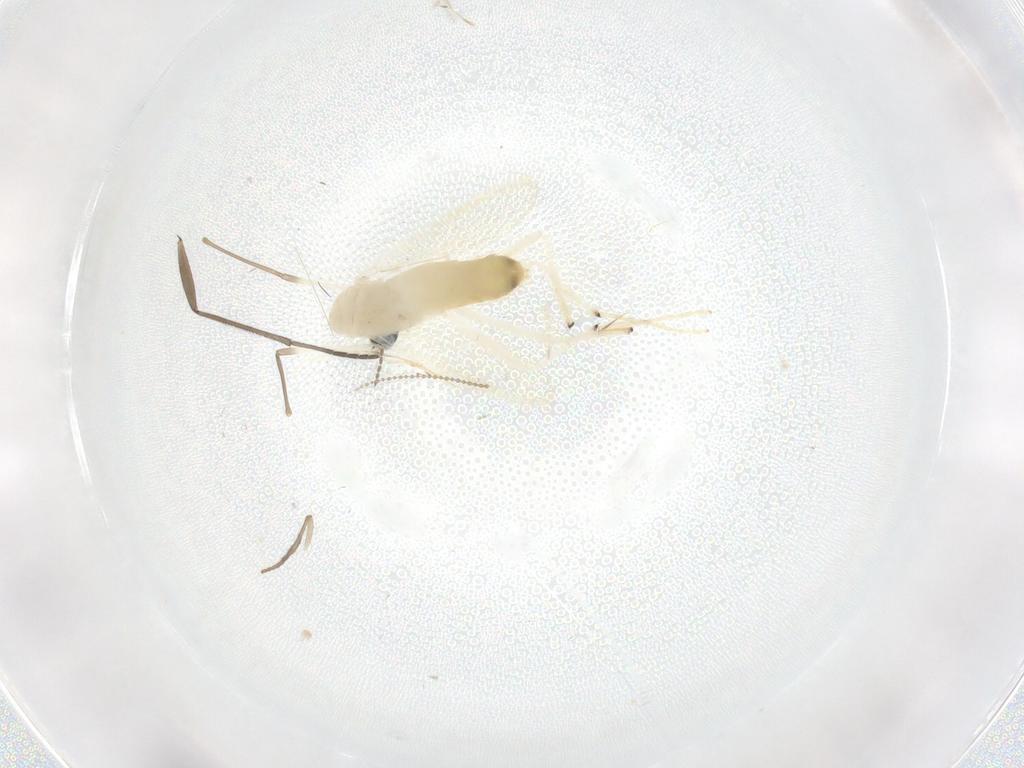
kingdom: Animalia
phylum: Arthropoda
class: Insecta
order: Diptera
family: Chironomidae
